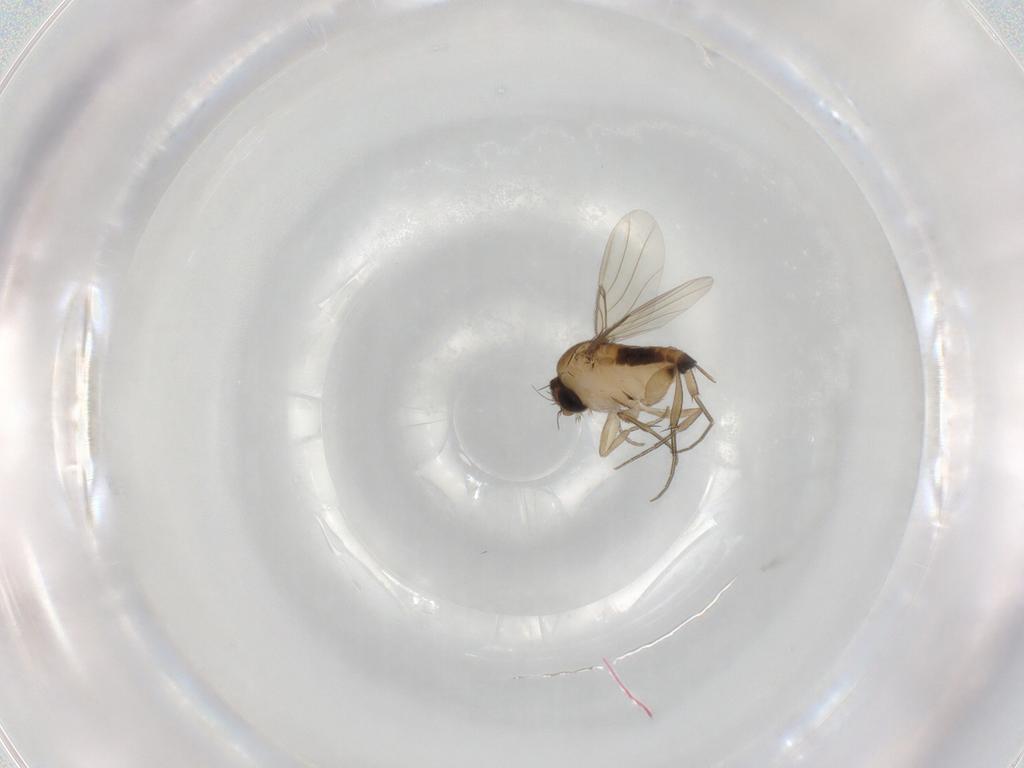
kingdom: Animalia
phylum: Arthropoda
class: Insecta
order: Diptera
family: Phoridae
